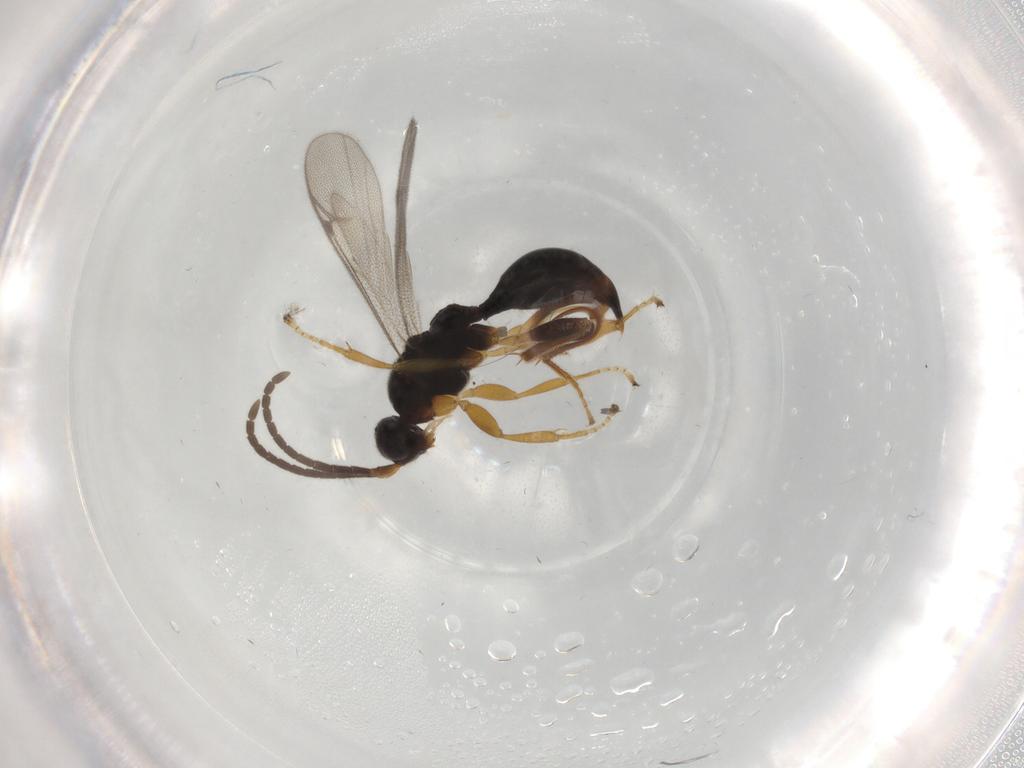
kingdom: Animalia
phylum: Arthropoda
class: Insecta
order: Hymenoptera
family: Proctotrupidae
